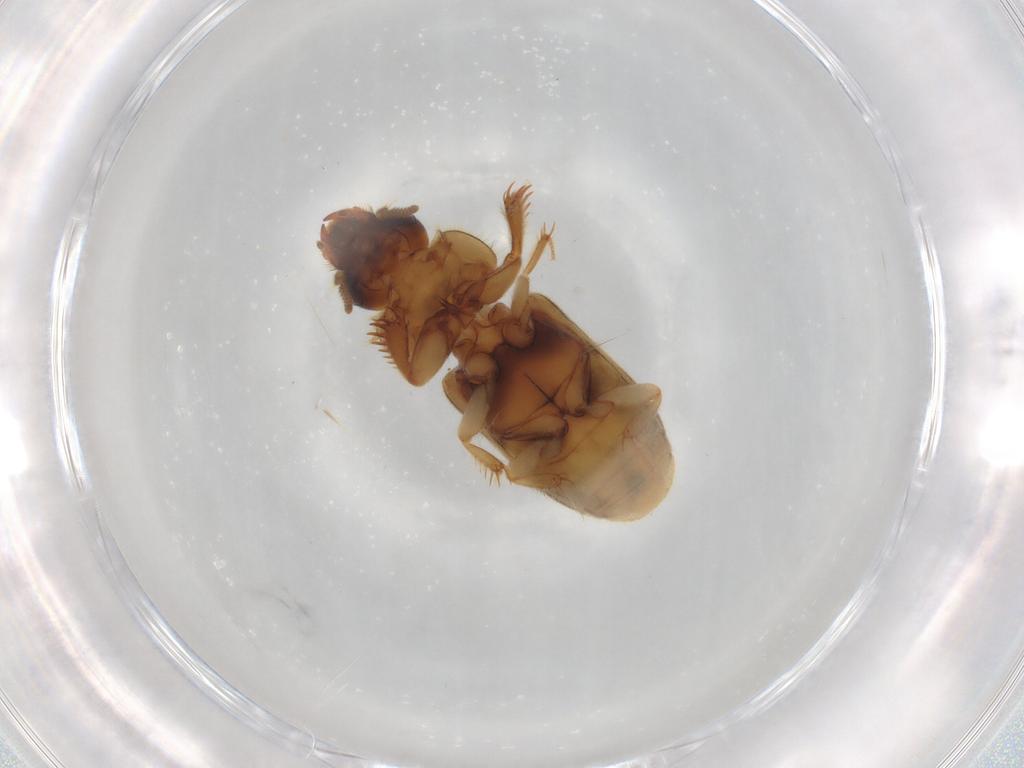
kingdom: Animalia
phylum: Arthropoda
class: Insecta
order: Coleoptera
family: Heteroceridae
